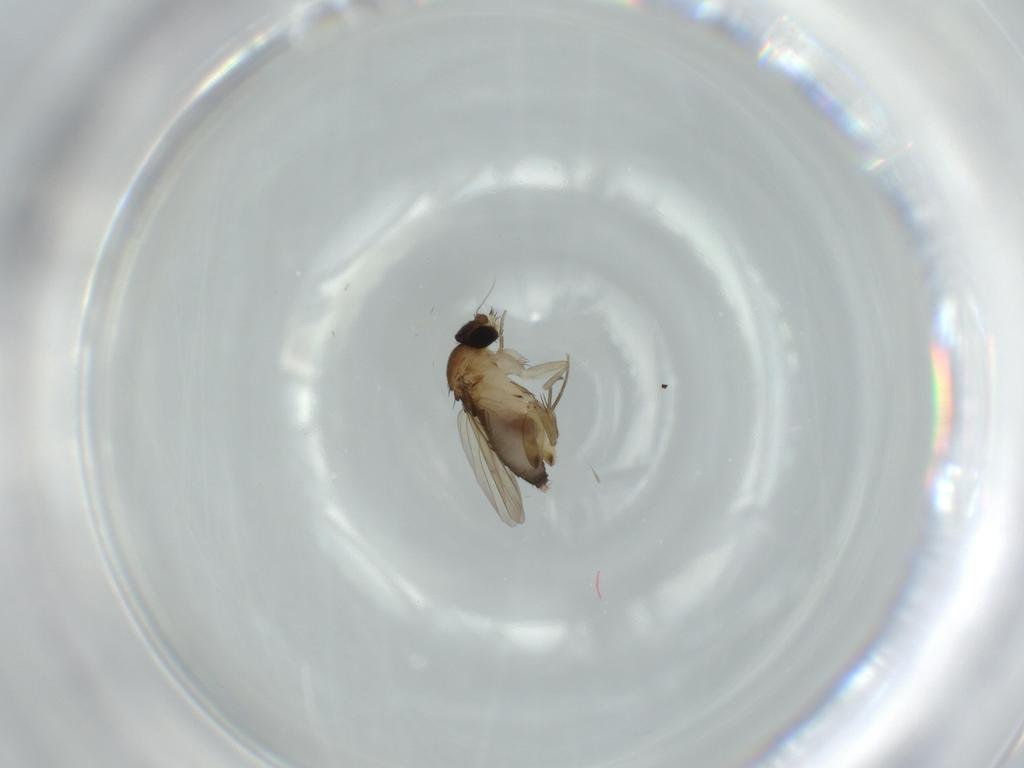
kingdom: Animalia
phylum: Arthropoda
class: Insecta
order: Diptera
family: Phoridae
